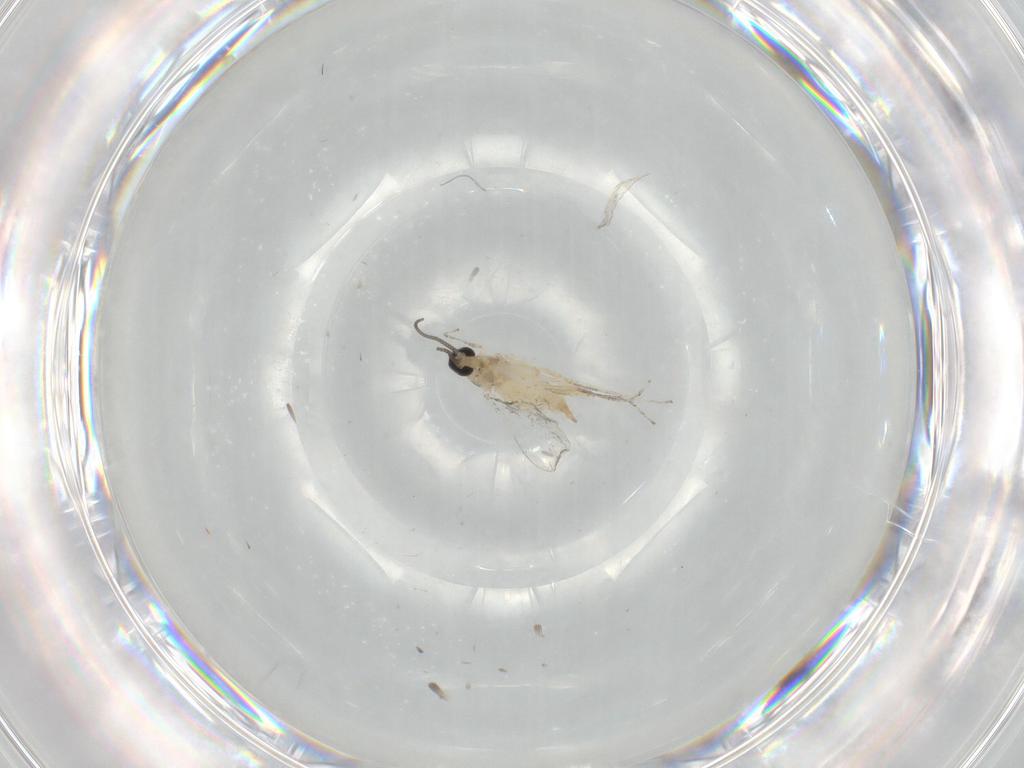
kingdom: Animalia
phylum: Arthropoda
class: Insecta
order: Diptera
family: Cecidomyiidae
